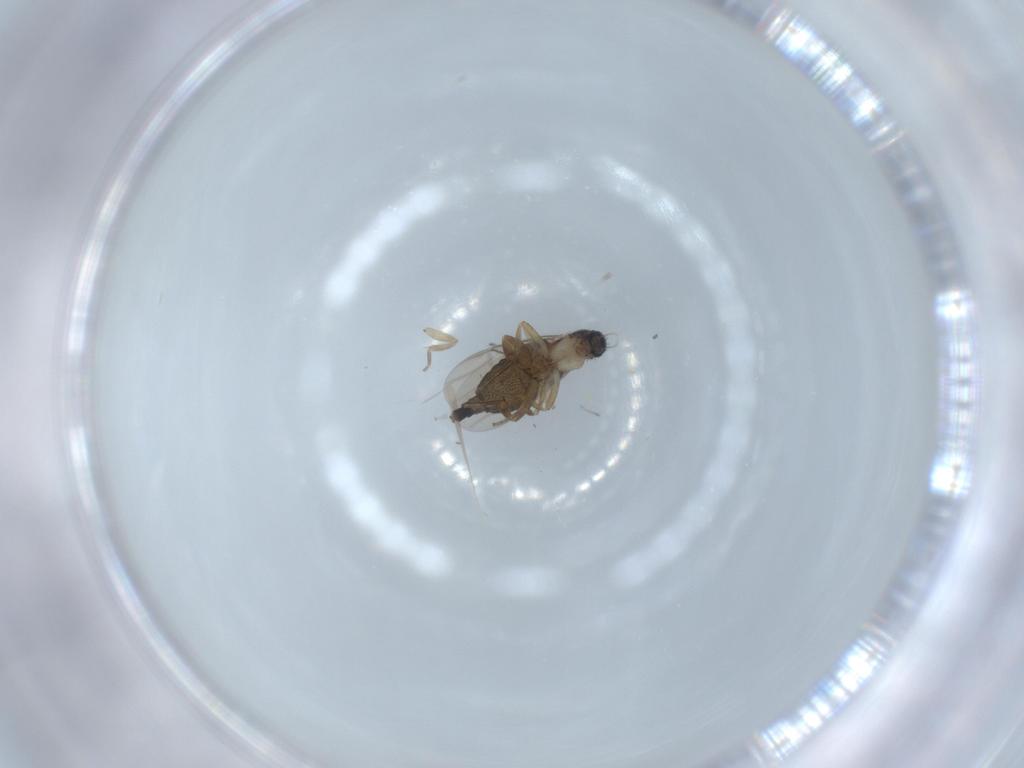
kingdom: Animalia
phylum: Arthropoda
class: Insecta
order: Diptera
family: Phoridae
